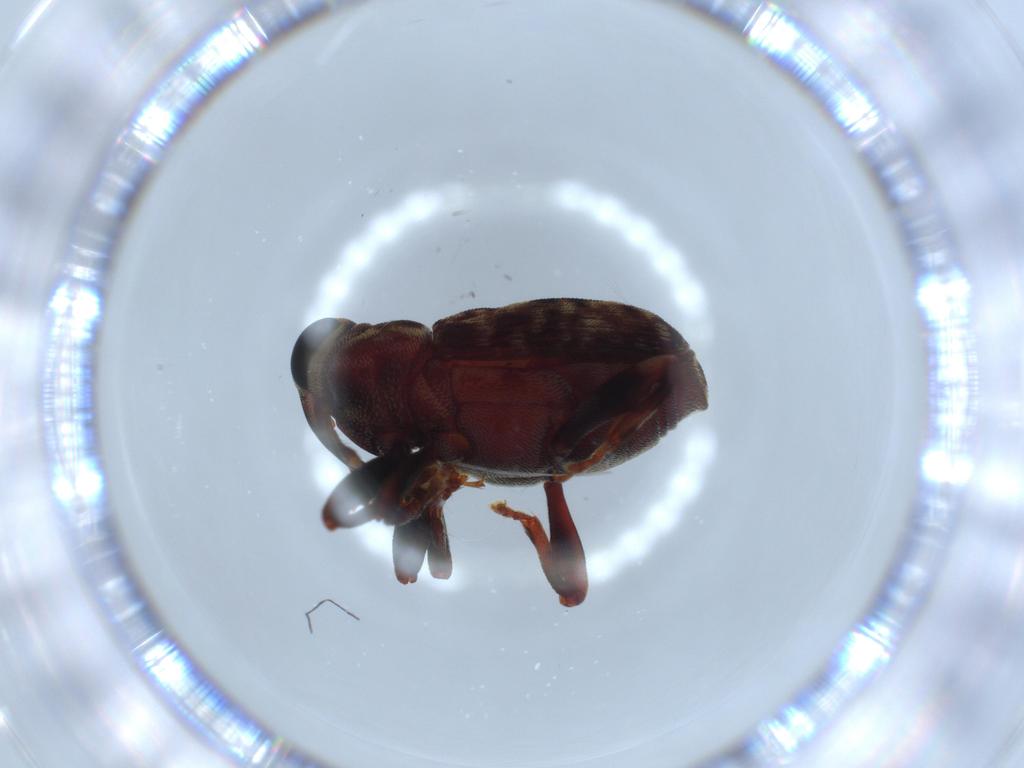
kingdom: Animalia
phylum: Arthropoda
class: Insecta
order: Coleoptera
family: Curculionidae
